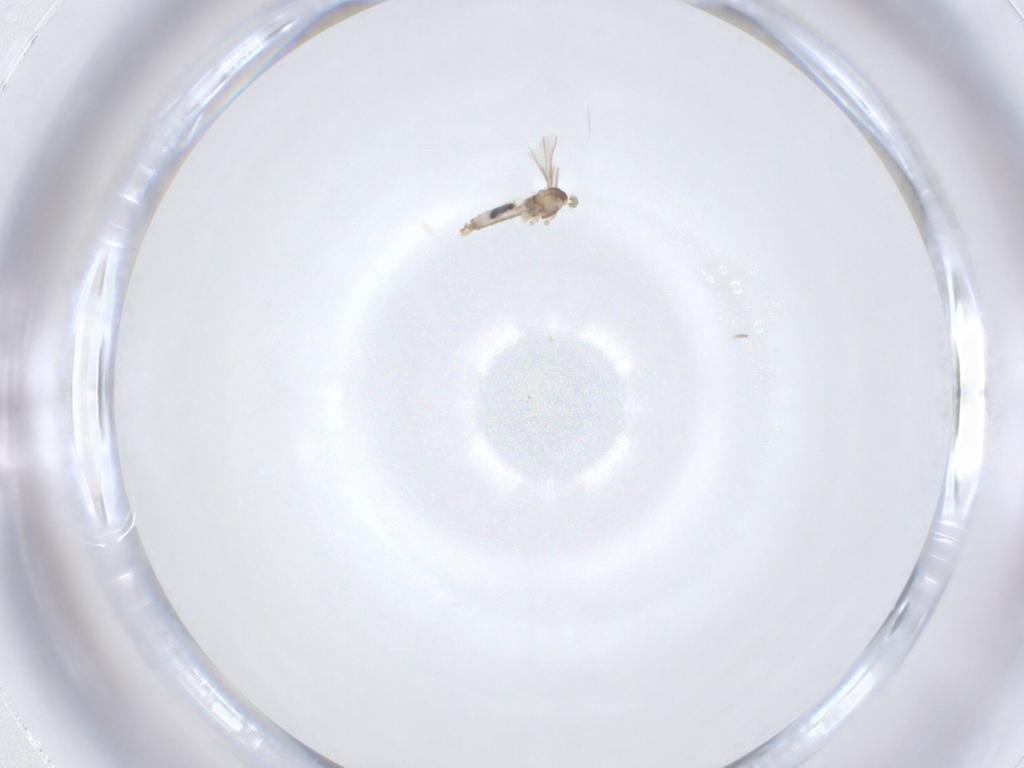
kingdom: Animalia
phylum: Arthropoda
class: Insecta
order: Diptera
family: Cecidomyiidae
